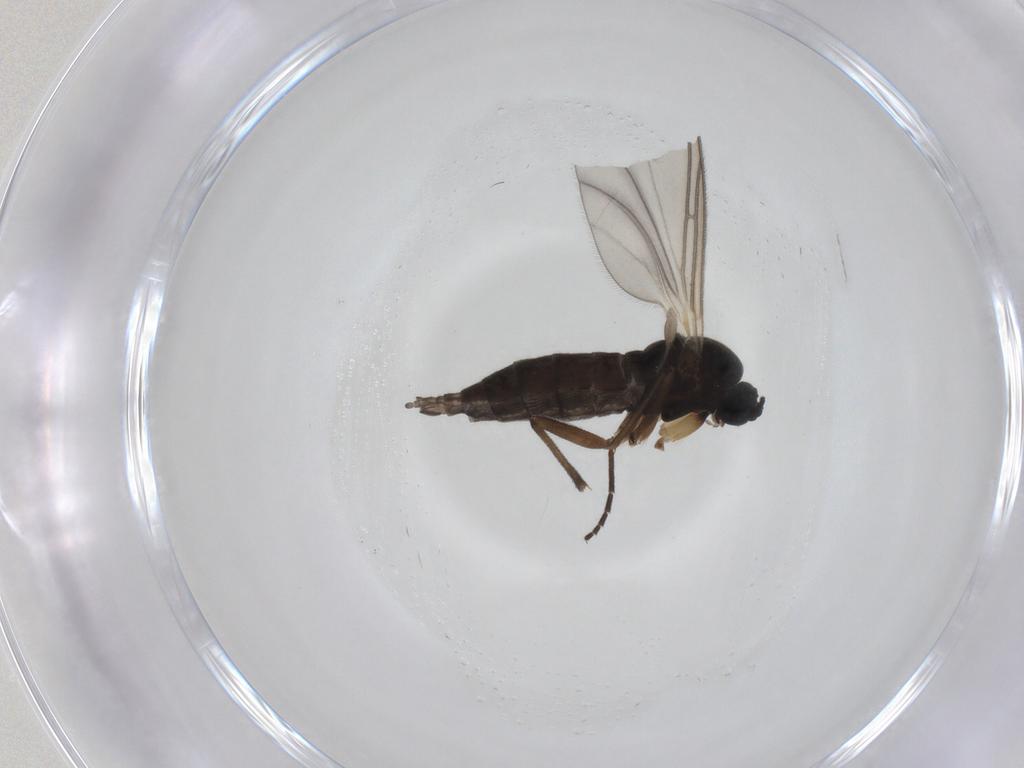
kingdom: Animalia
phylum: Arthropoda
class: Insecta
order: Diptera
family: Sciaridae
